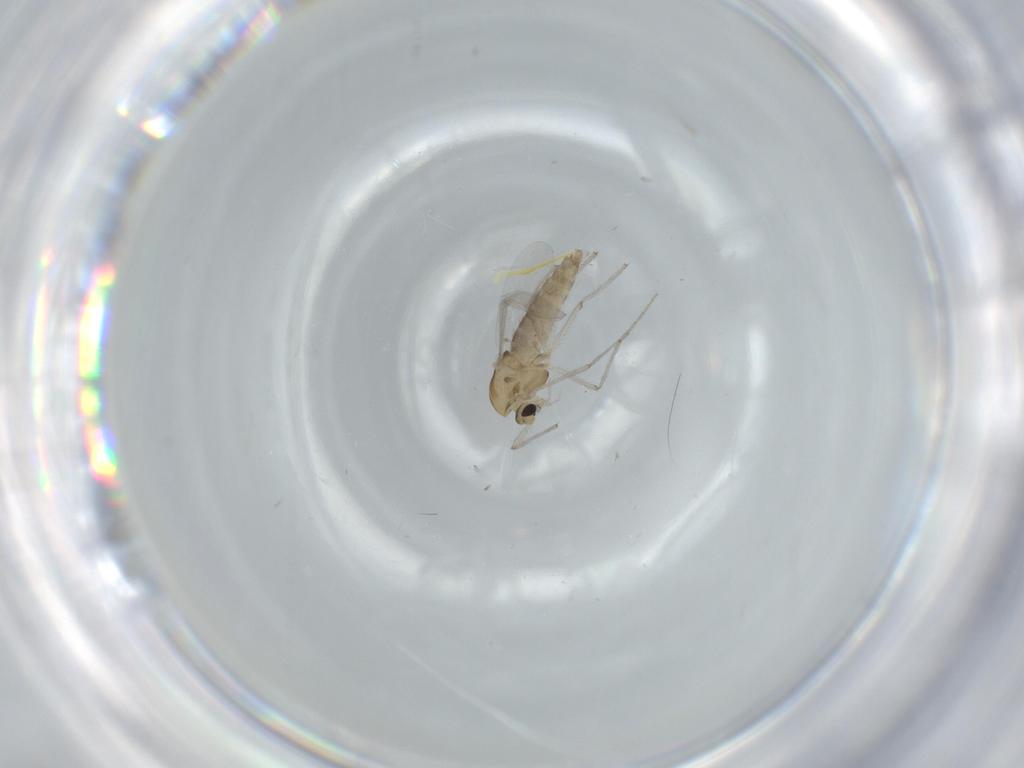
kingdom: Animalia
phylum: Arthropoda
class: Insecta
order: Diptera
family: Chironomidae
